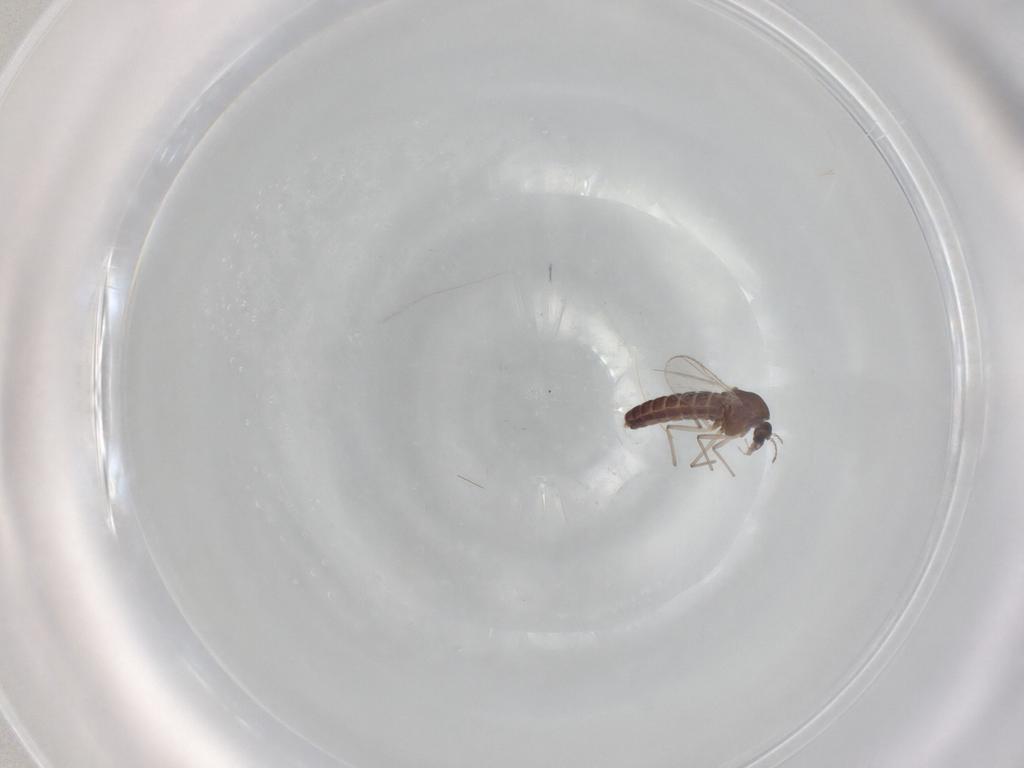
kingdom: Animalia
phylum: Arthropoda
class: Insecta
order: Diptera
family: Chironomidae
